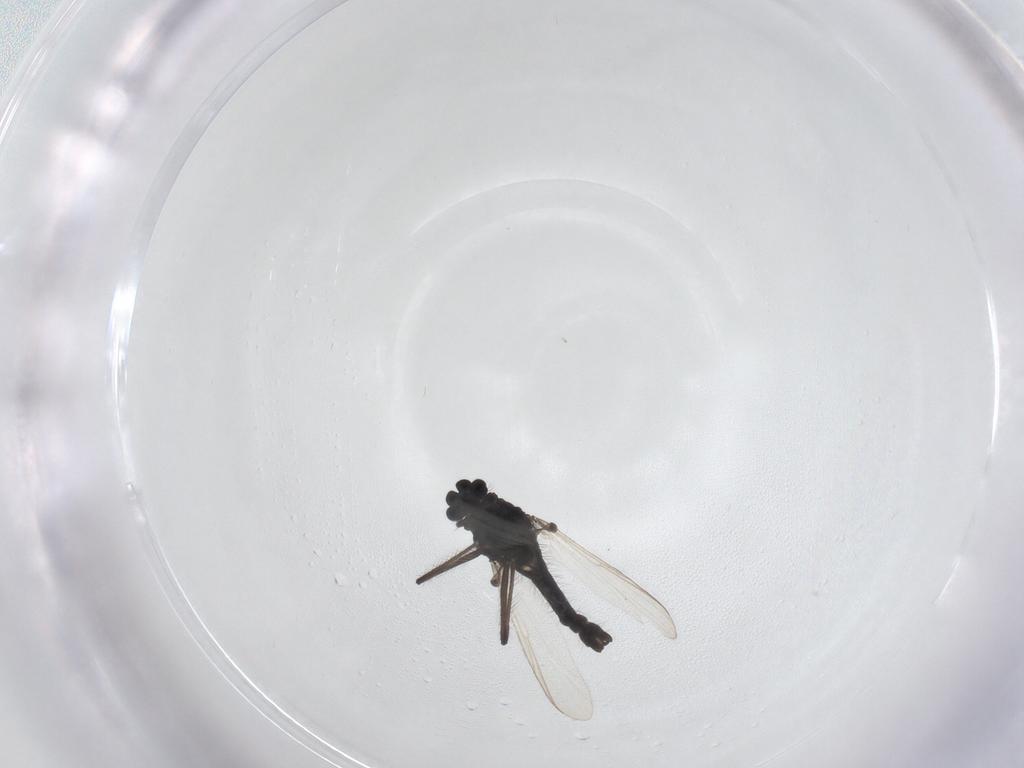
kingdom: Animalia
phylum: Arthropoda
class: Insecta
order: Diptera
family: Chironomidae
